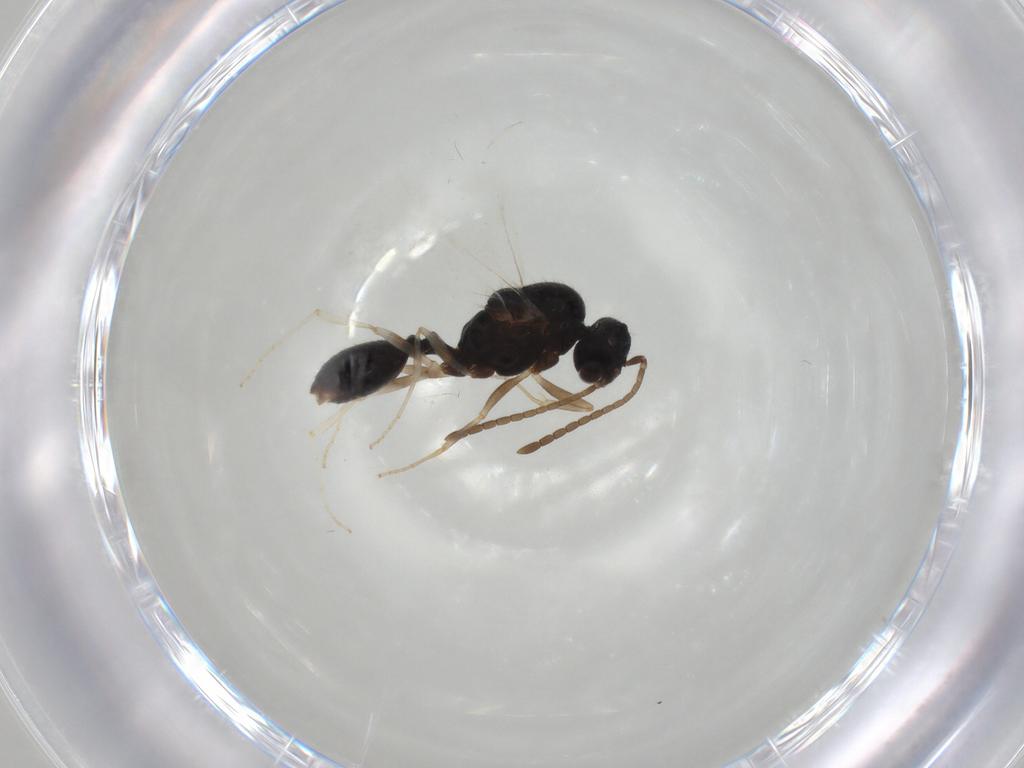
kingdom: Animalia
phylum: Arthropoda
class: Insecta
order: Hymenoptera
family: Formicidae
